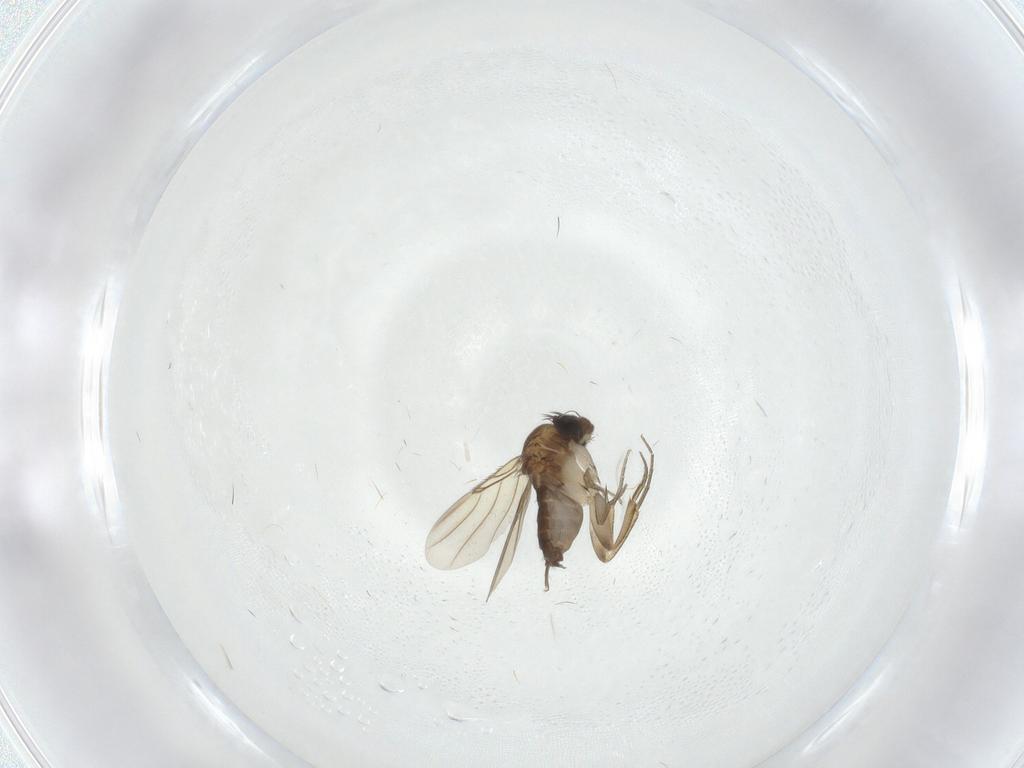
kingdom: Animalia
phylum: Arthropoda
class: Insecta
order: Diptera
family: Phoridae
